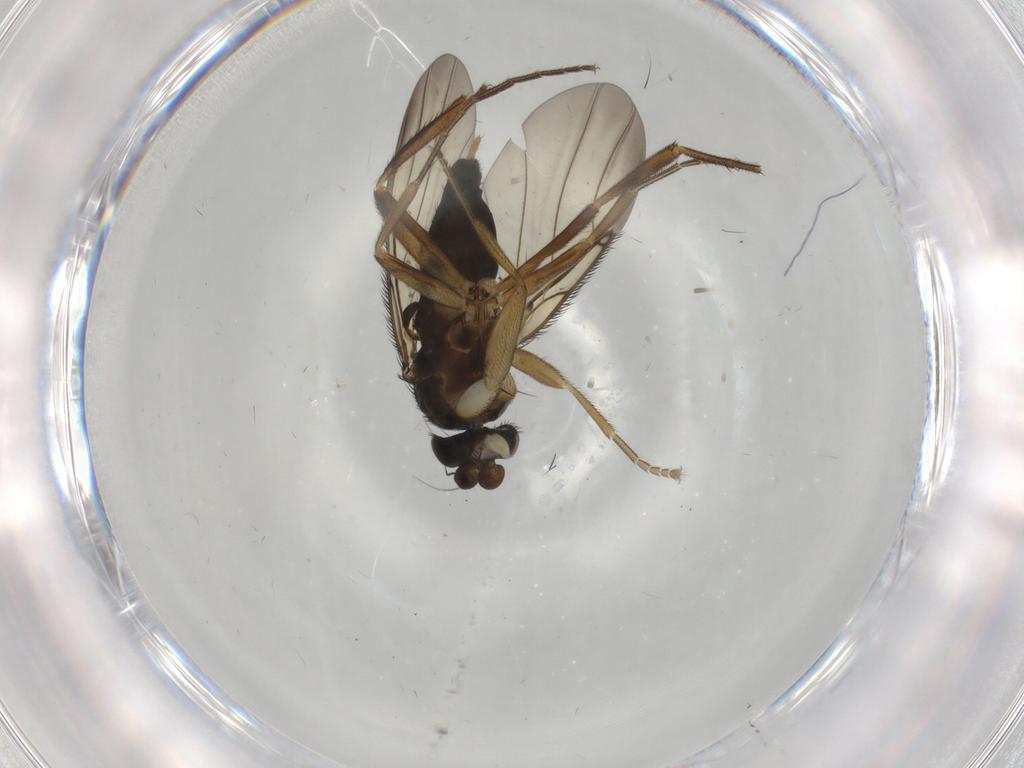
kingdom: Animalia
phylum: Arthropoda
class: Insecta
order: Diptera
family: Phoridae
